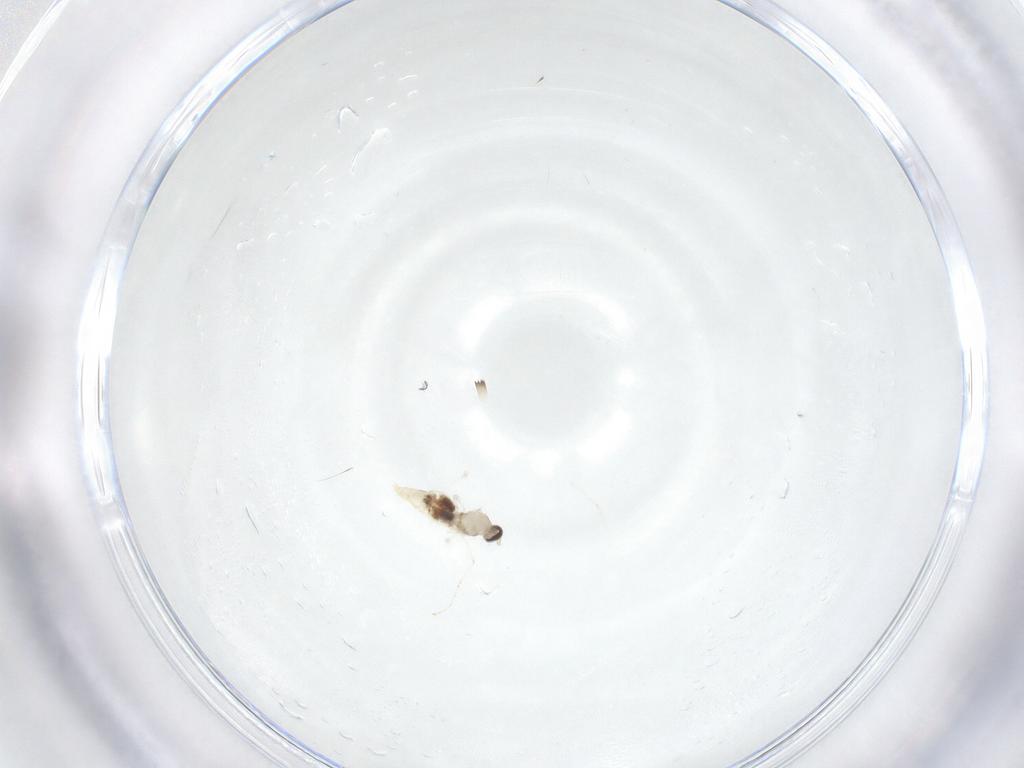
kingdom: Animalia
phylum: Arthropoda
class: Insecta
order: Diptera
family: Cecidomyiidae
